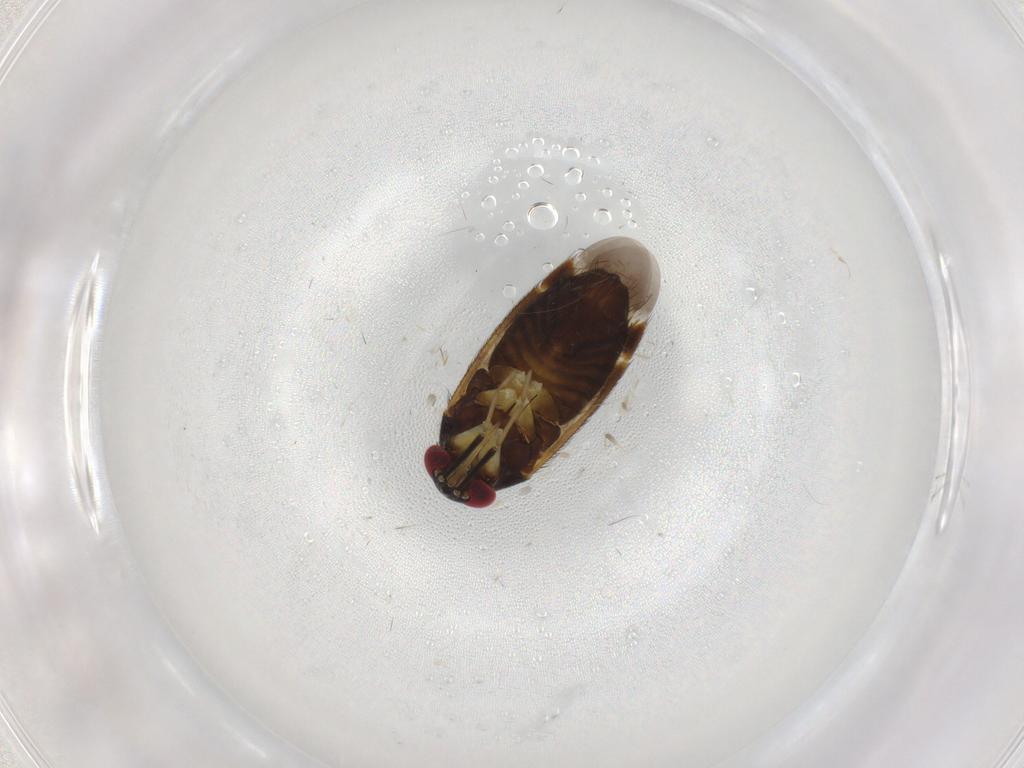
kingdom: Animalia
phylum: Arthropoda
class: Insecta
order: Hemiptera
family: Miridae
